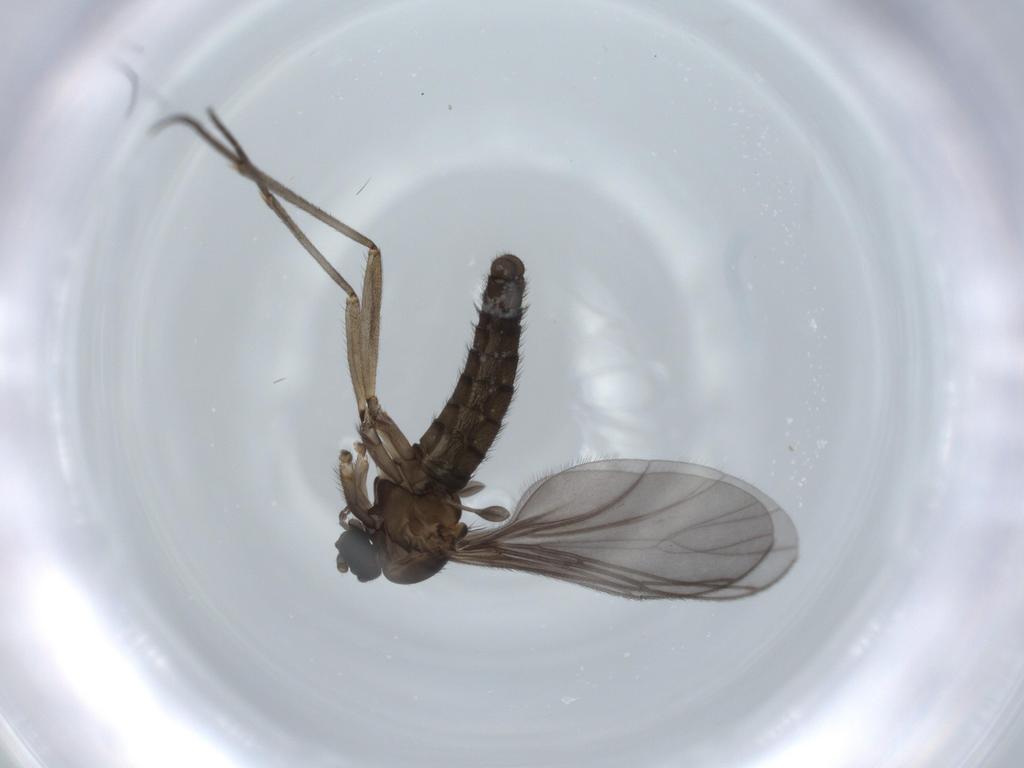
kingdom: Animalia
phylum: Arthropoda
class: Insecta
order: Diptera
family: Sciaridae
